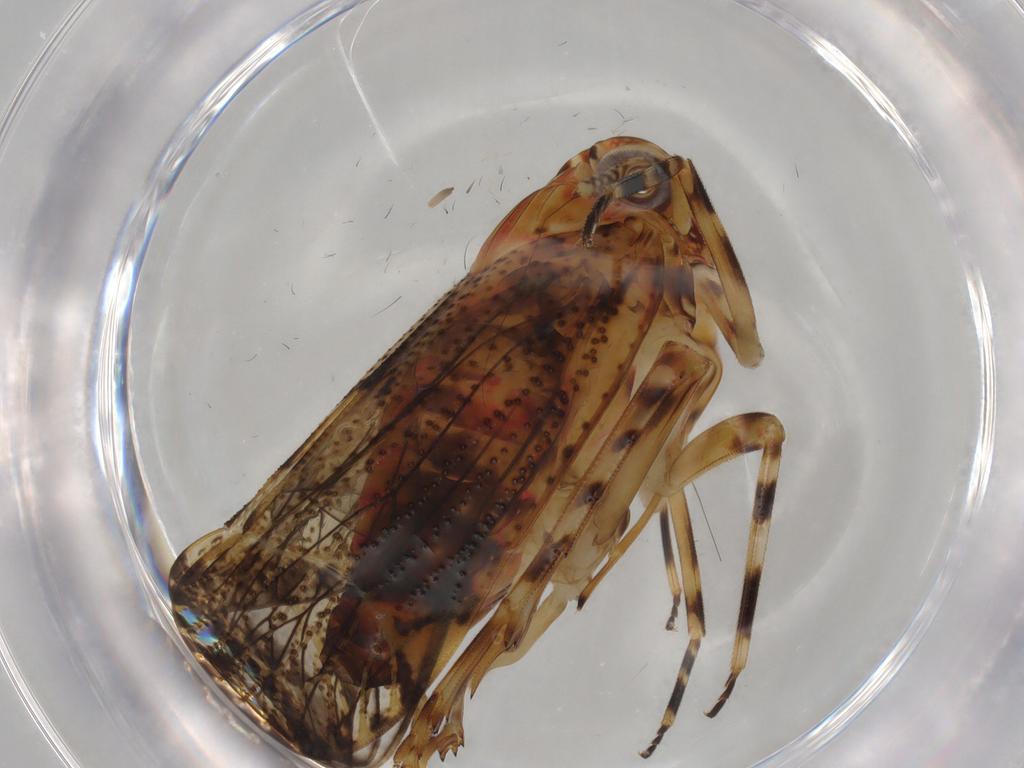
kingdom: Animalia
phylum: Arthropoda
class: Insecta
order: Hemiptera
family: Delphacidae
